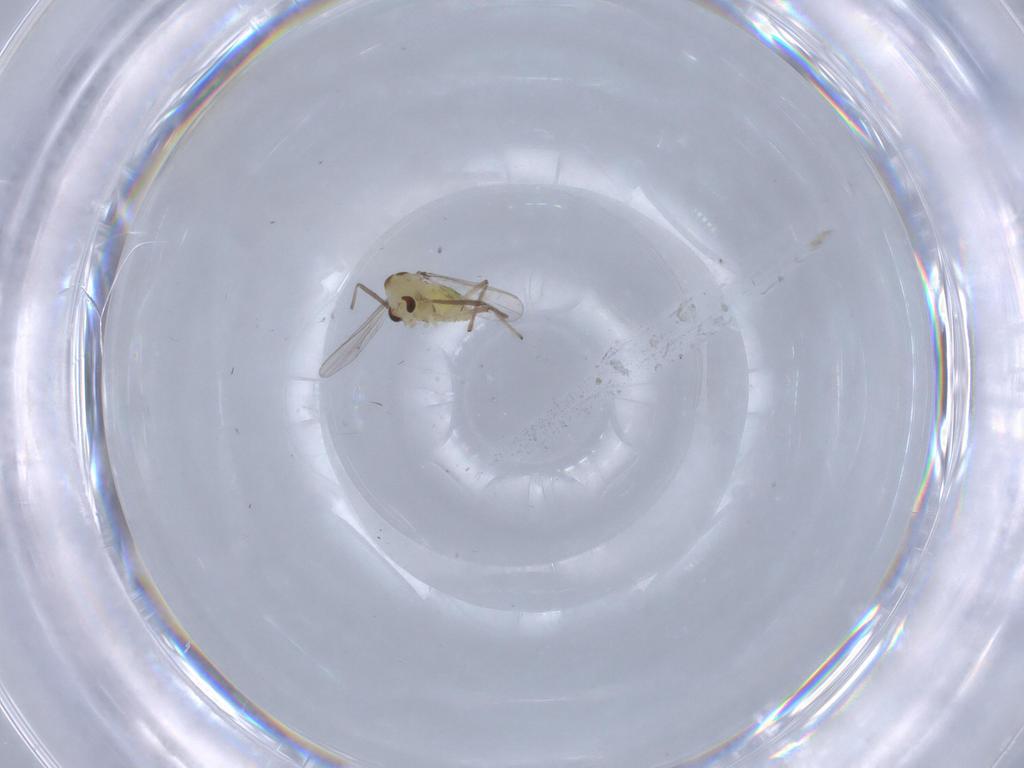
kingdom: Animalia
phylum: Arthropoda
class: Insecta
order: Diptera
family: Chironomidae
